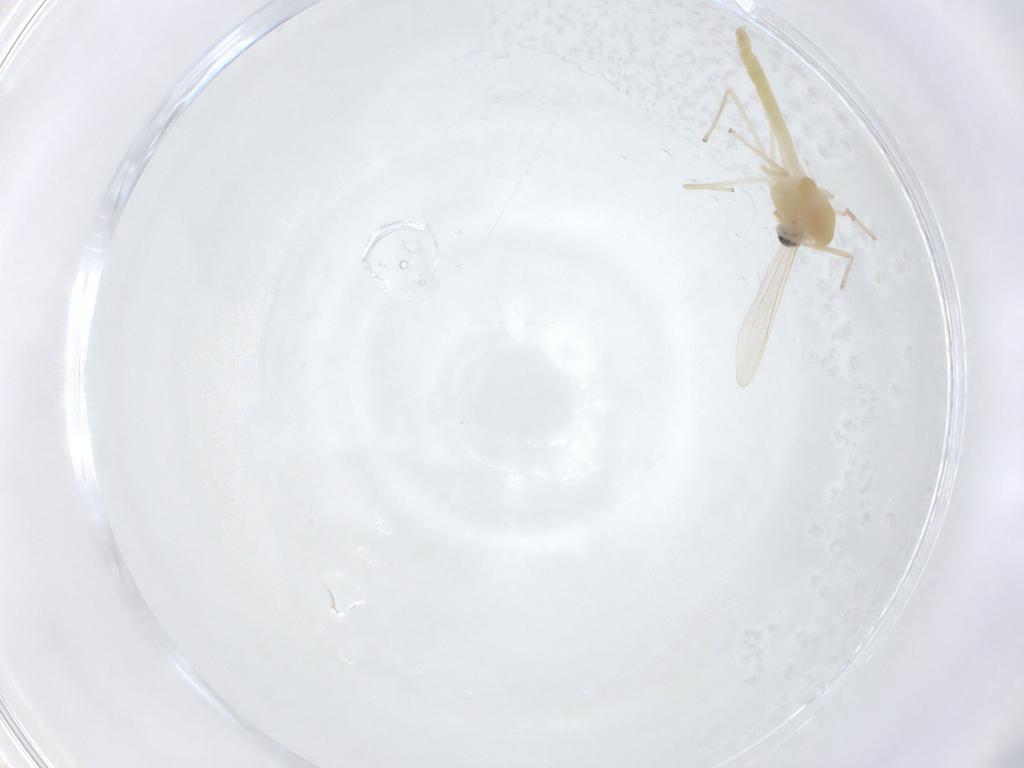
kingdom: Animalia
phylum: Arthropoda
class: Insecta
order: Diptera
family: Chironomidae
